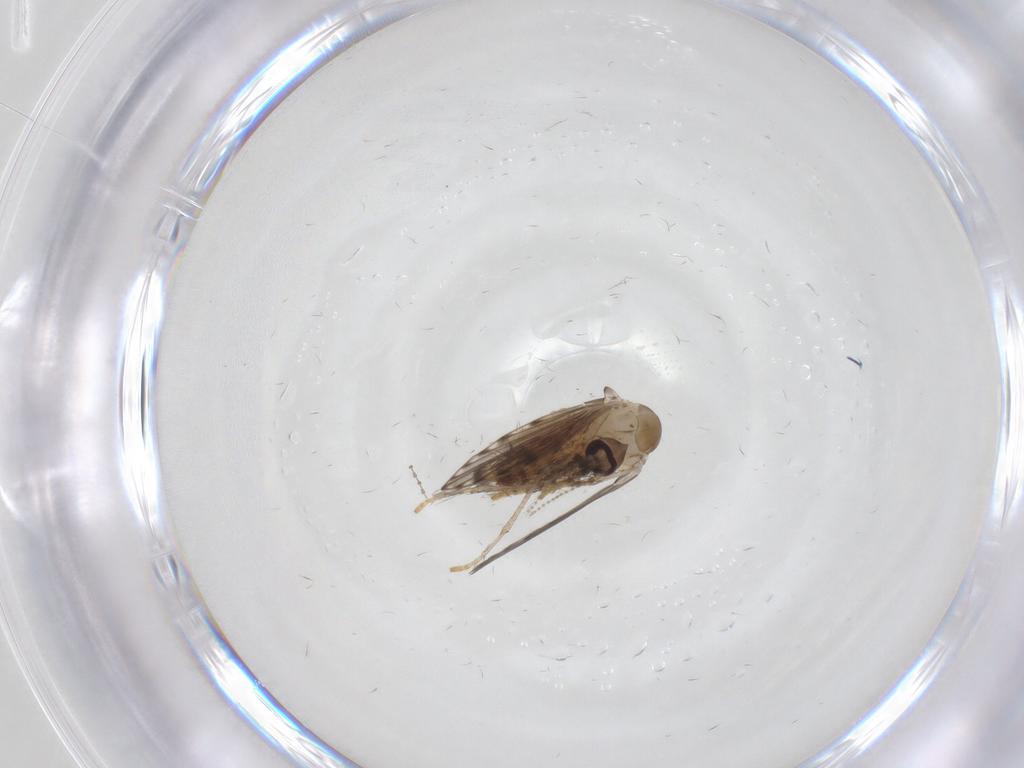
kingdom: Animalia
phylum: Arthropoda
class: Insecta
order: Diptera
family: Psychodidae
